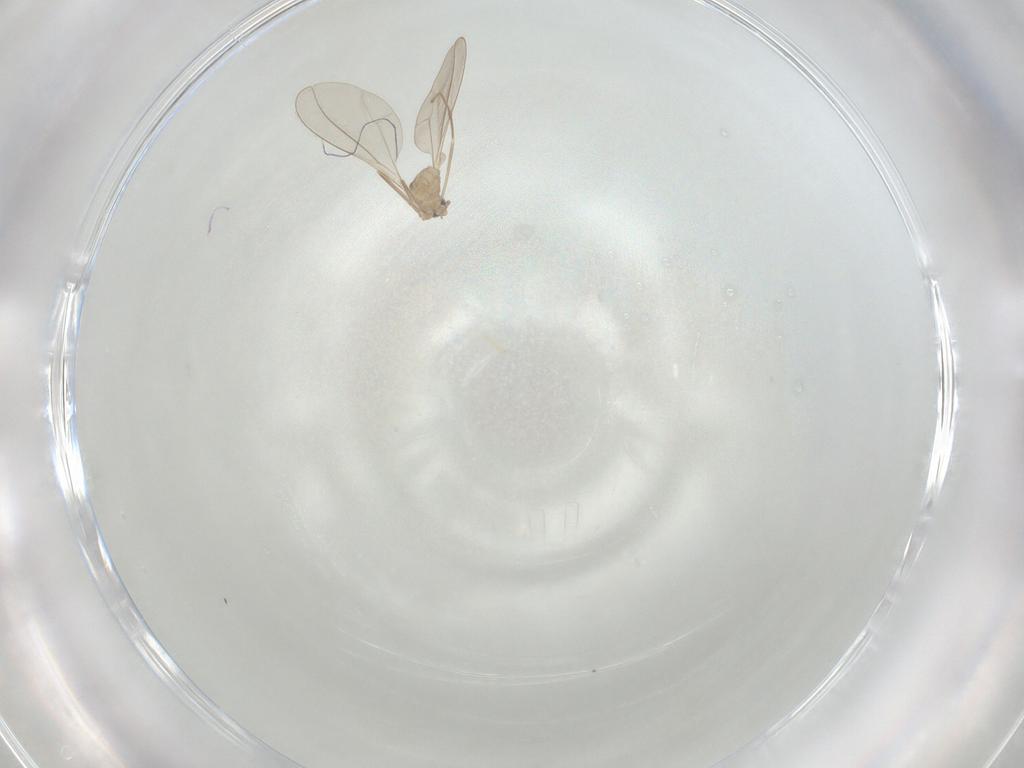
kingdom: Animalia
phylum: Arthropoda
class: Insecta
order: Diptera
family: Cecidomyiidae
